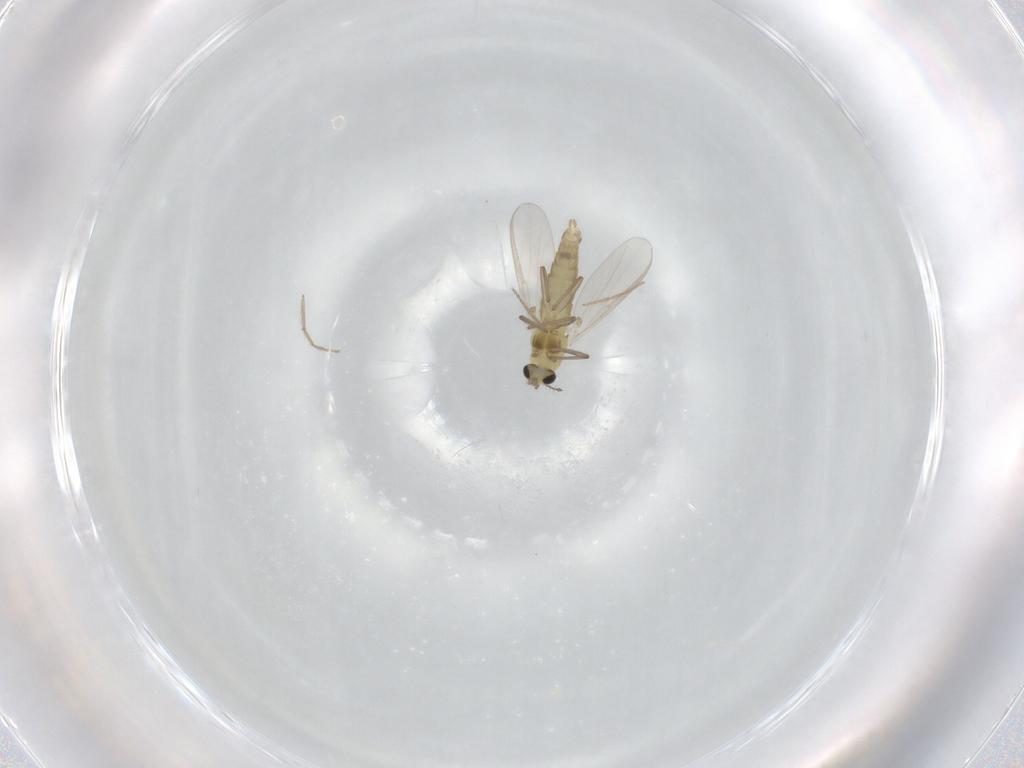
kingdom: Animalia
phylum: Arthropoda
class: Insecta
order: Diptera
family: Chironomidae
